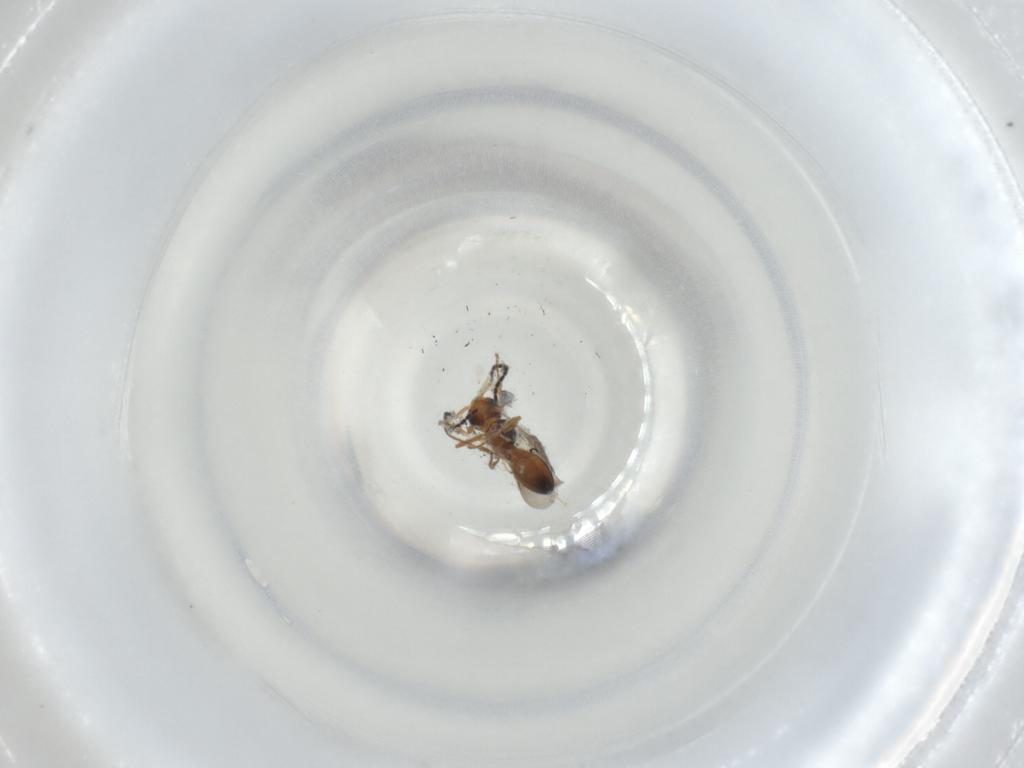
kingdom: Animalia
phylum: Arthropoda
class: Insecta
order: Hymenoptera
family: Scelionidae
